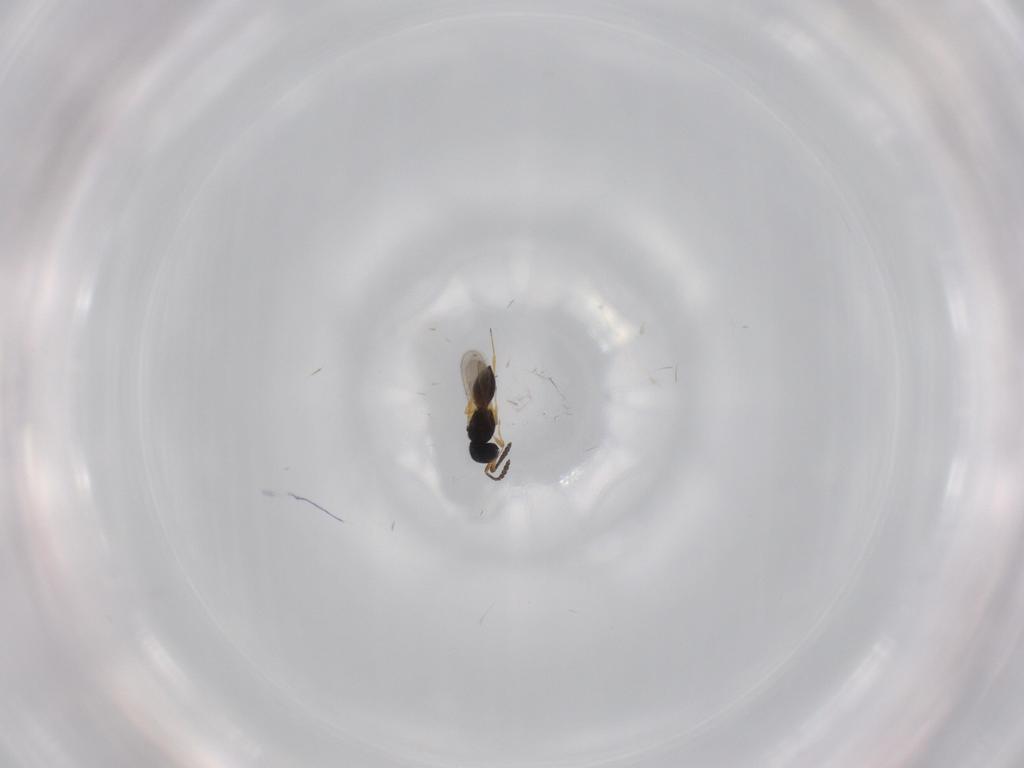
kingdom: Animalia
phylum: Arthropoda
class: Insecta
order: Hymenoptera
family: Scelionidae
